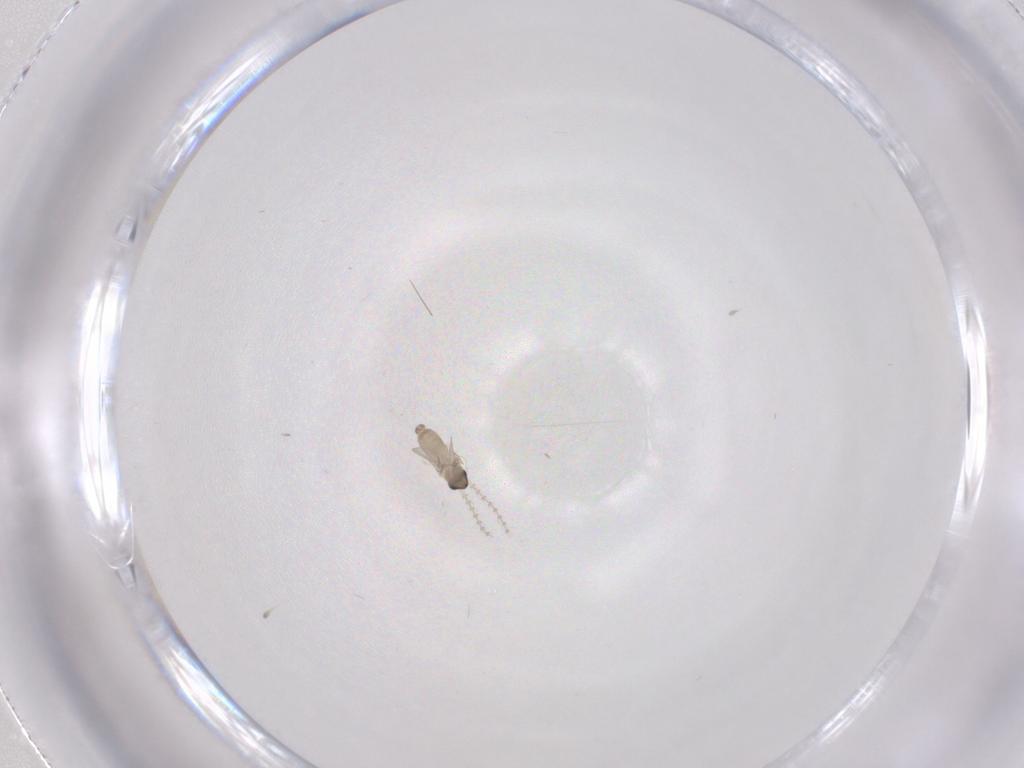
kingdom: Animalia
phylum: Arthropoda
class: Insecta
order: Diptera
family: Cecidomyiidae
